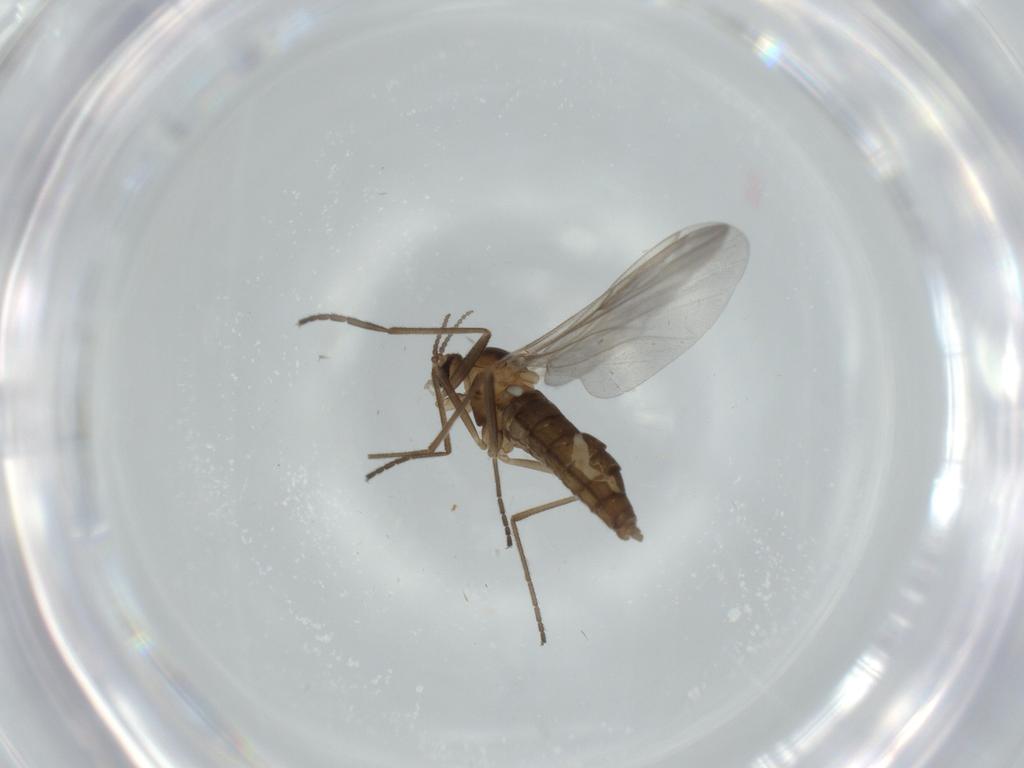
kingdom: Animalia
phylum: Arthropoda
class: Insecta
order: Diptera
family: Cecidomyiidae
